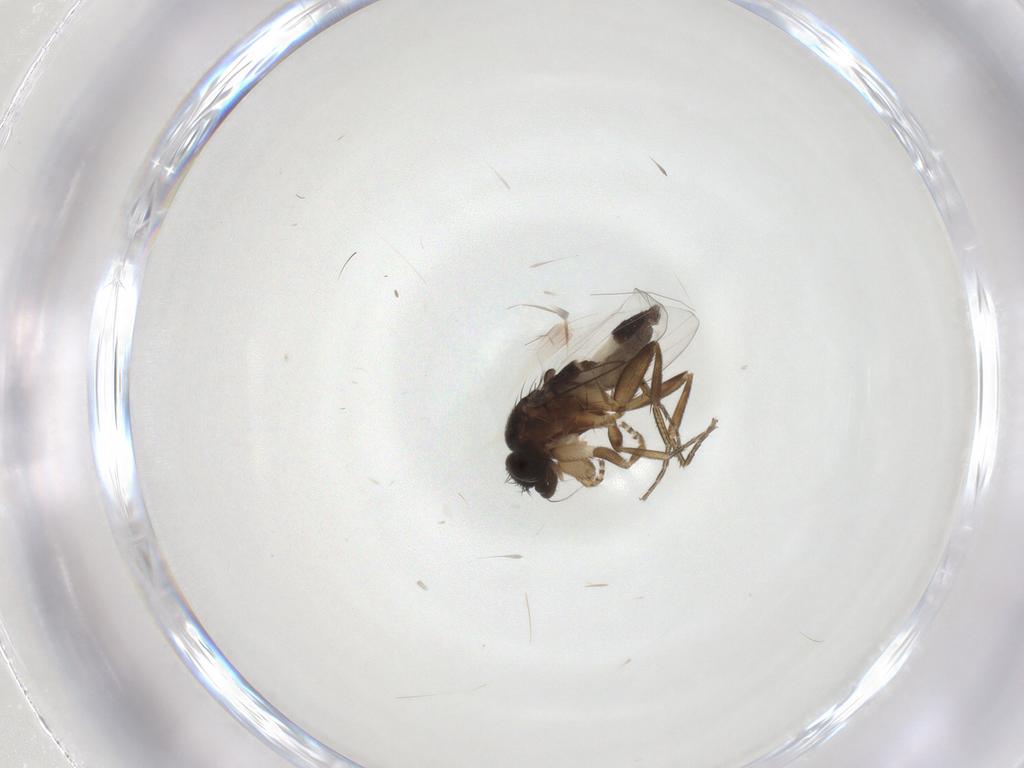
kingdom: Animalia
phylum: Arthropoda
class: Insecta
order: Diptera
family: Phoridae
